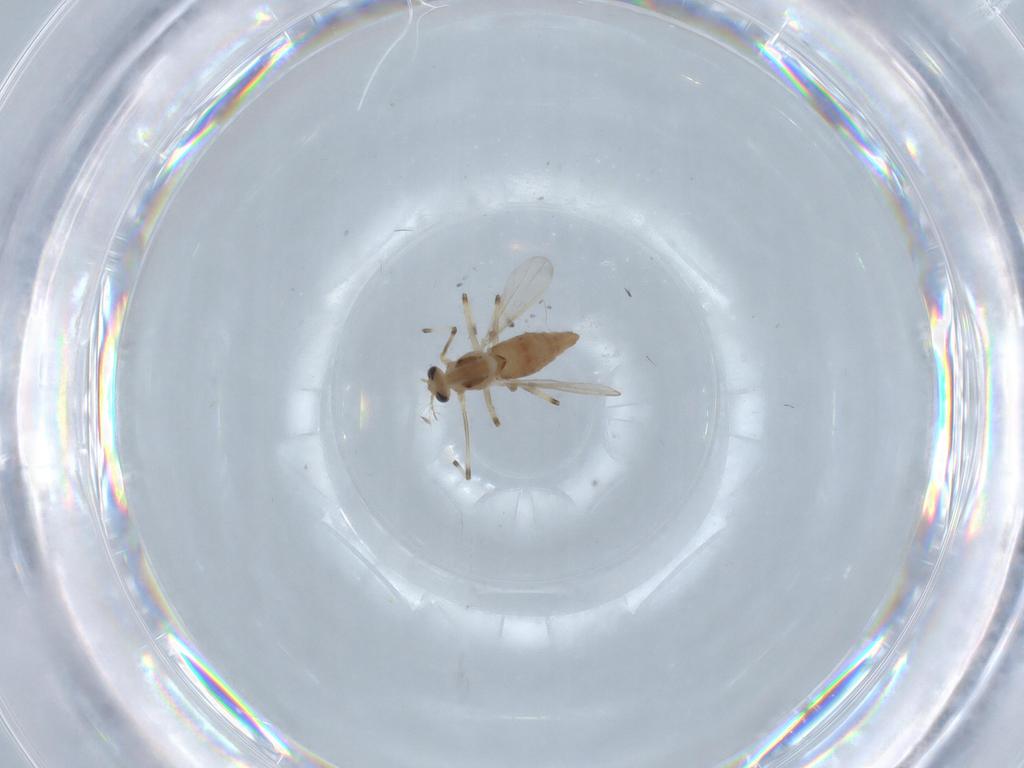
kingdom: Animalia
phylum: Arthropoda
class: Insecta
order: Diptera
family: Chironomidae
